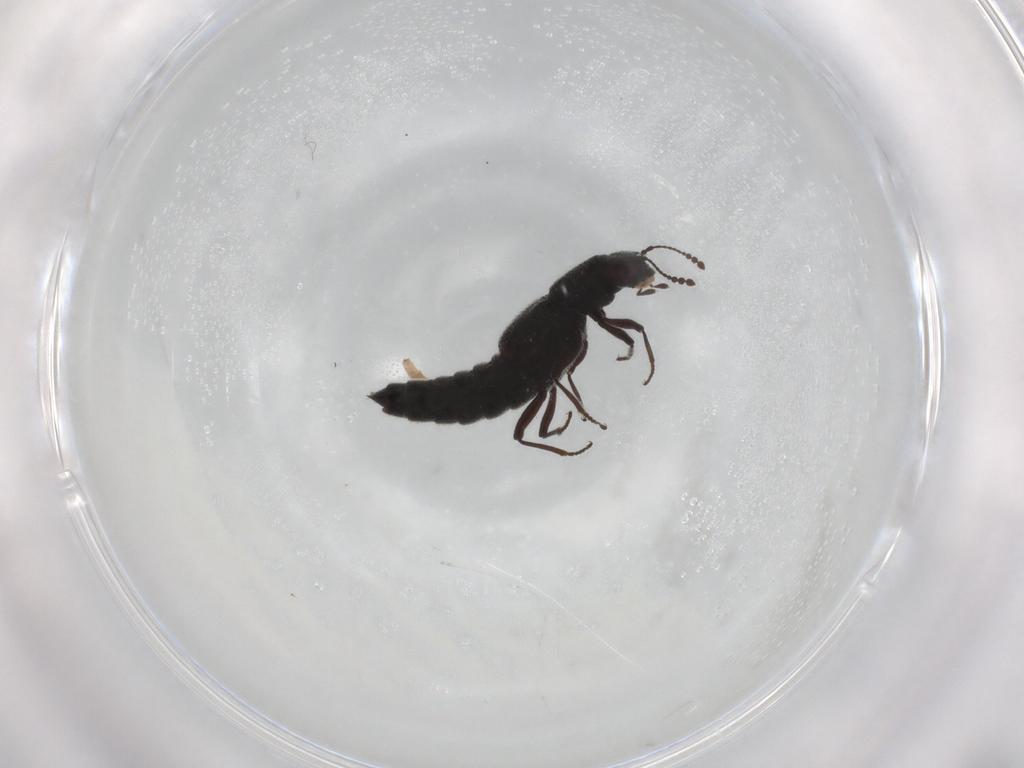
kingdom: Animalia
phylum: Arthropoda
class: Insecta
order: Coleoptera
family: Staphylinidae
